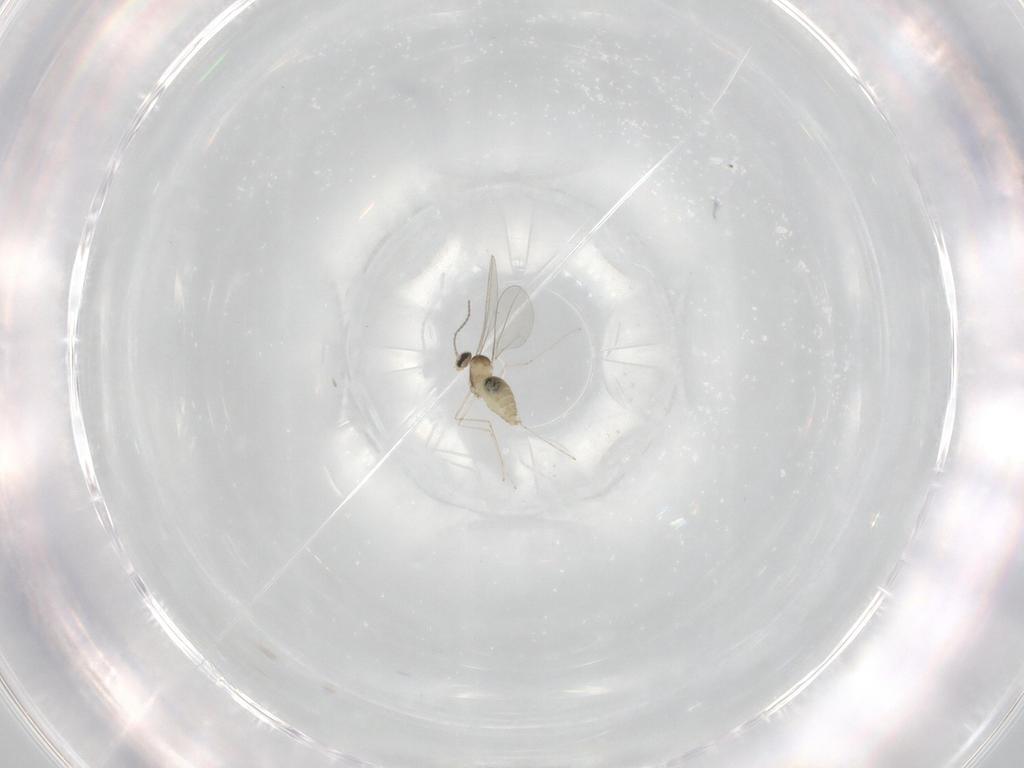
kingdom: Animalia
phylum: Arthropoda
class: Insecta
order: Diptera
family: Cecidomyiidae
